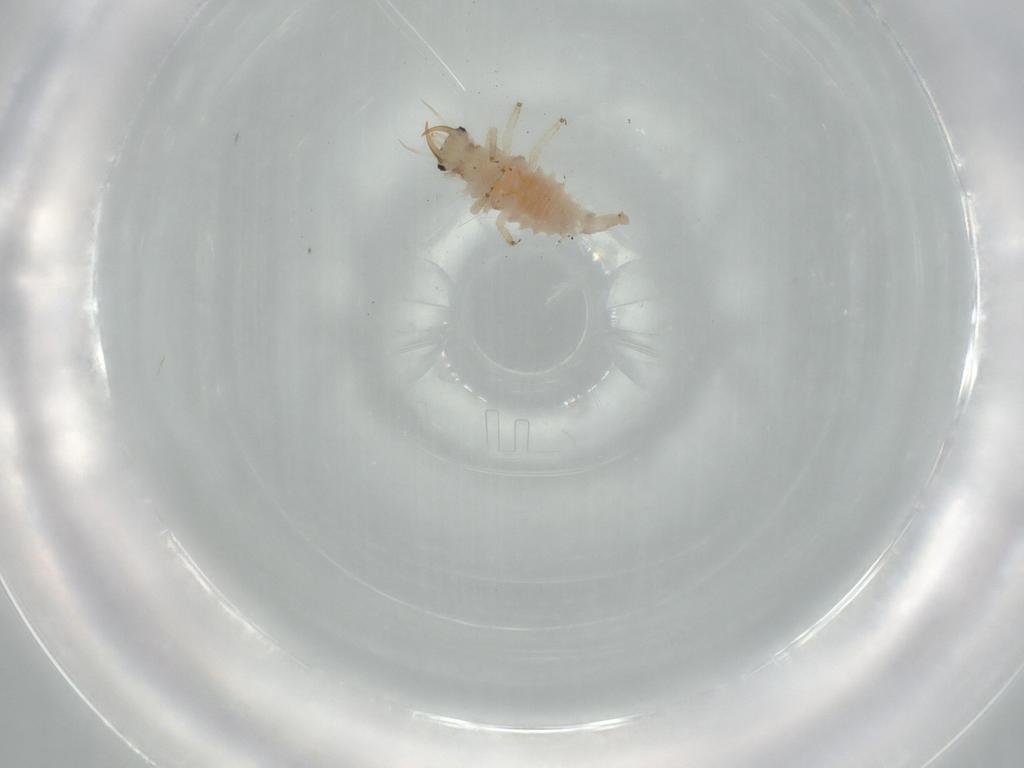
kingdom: Animalia
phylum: Arthropoda
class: Insecta
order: Neuroptera
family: Chrysopidae
